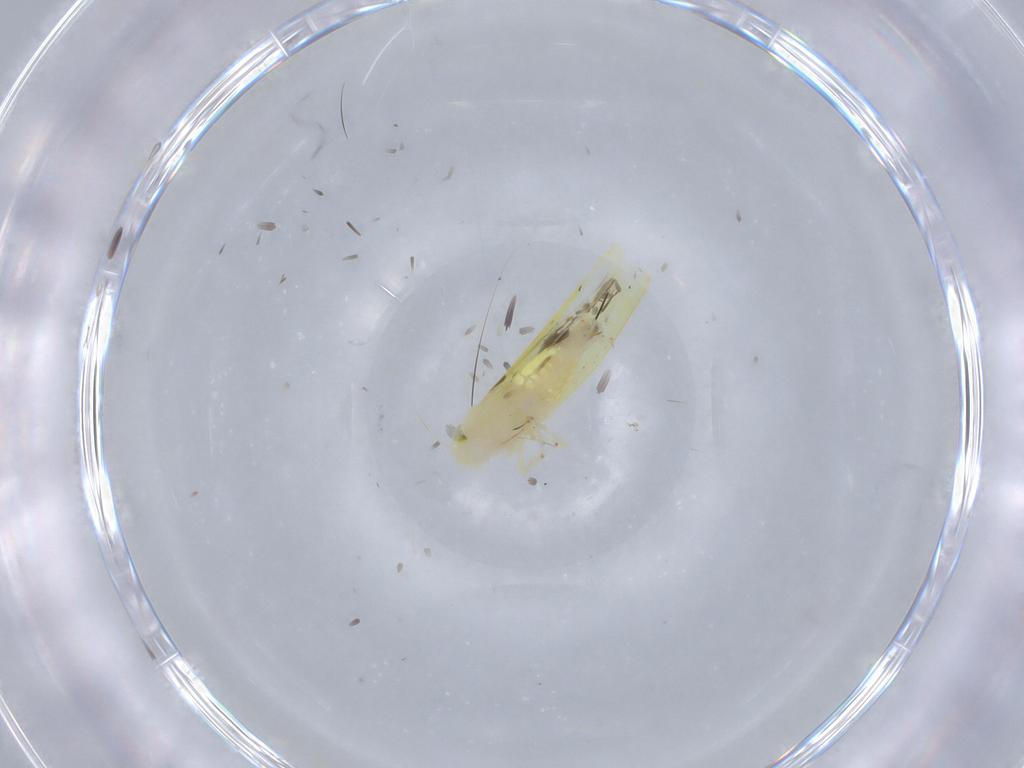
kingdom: Animalia
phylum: Arthropoda
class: Insecta
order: Hemiptera
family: Cicadellidae
